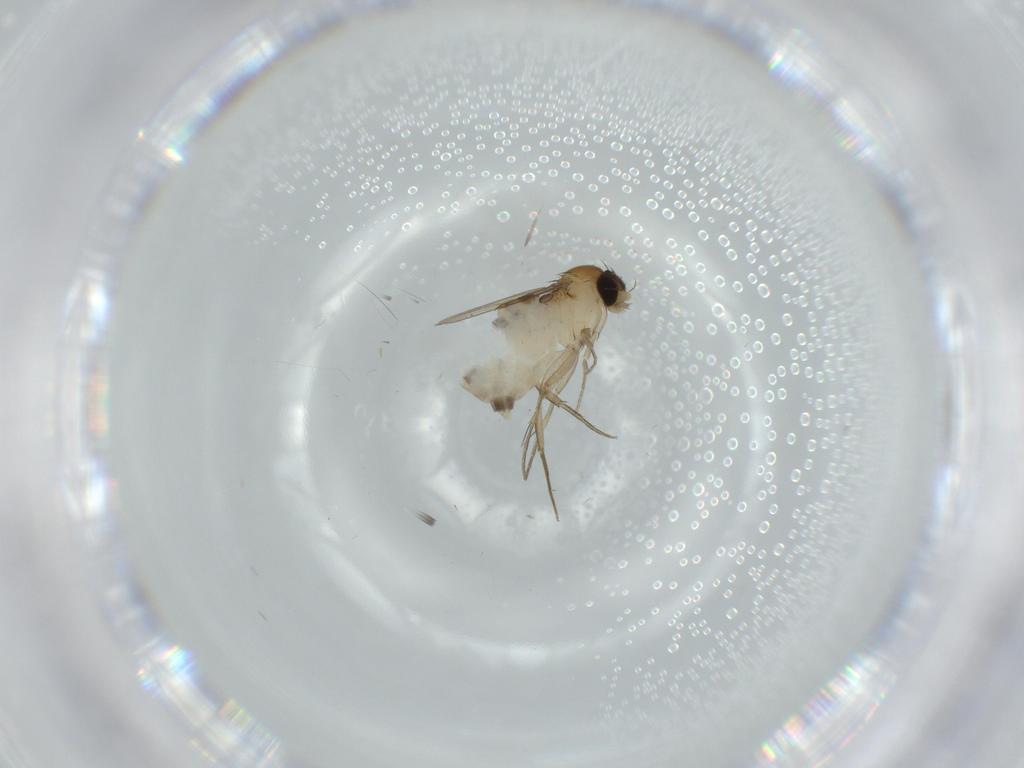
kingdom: Animalia
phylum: Arthropoda
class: Insecta
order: Diptera
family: Phoridae
